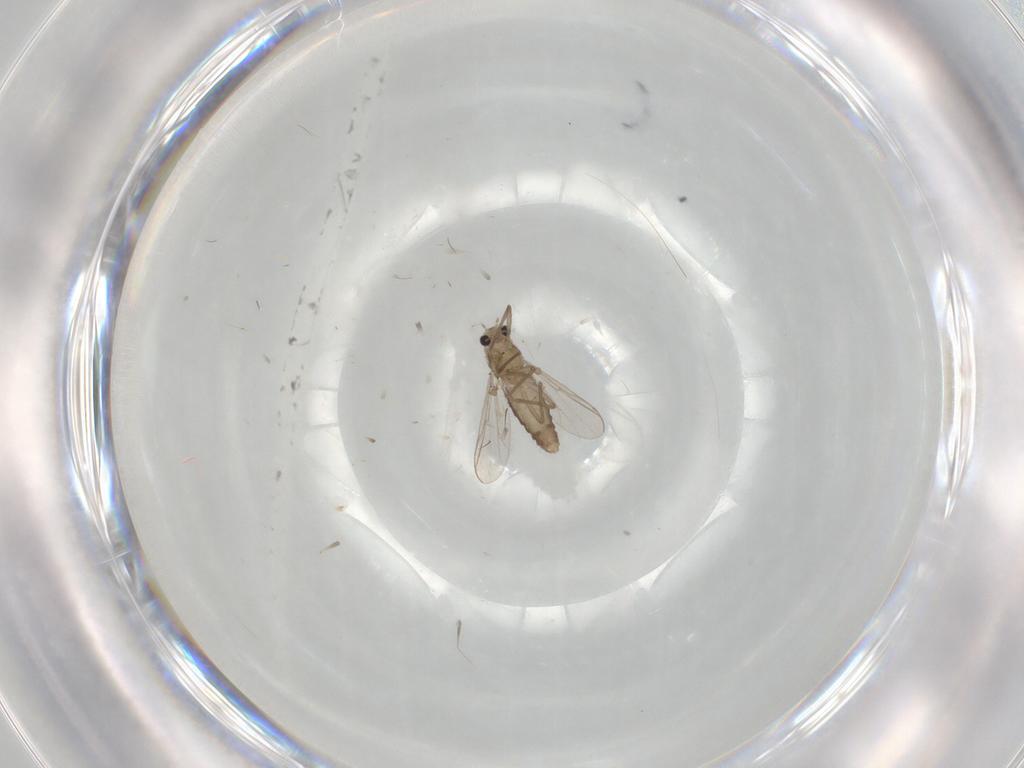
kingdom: Animalia
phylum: Arthropoda
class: Insecta
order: Diptera
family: Chironomidae
